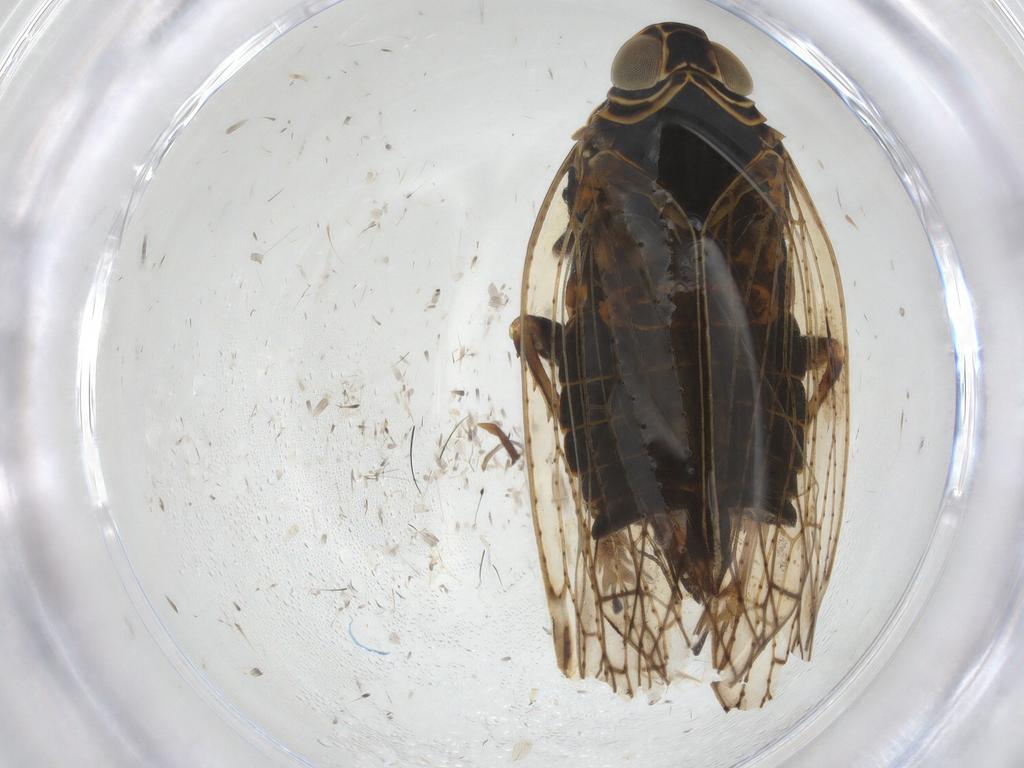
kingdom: Animalia
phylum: Arthropoda
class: Insecta
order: Hemiptera
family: Cixiidae
